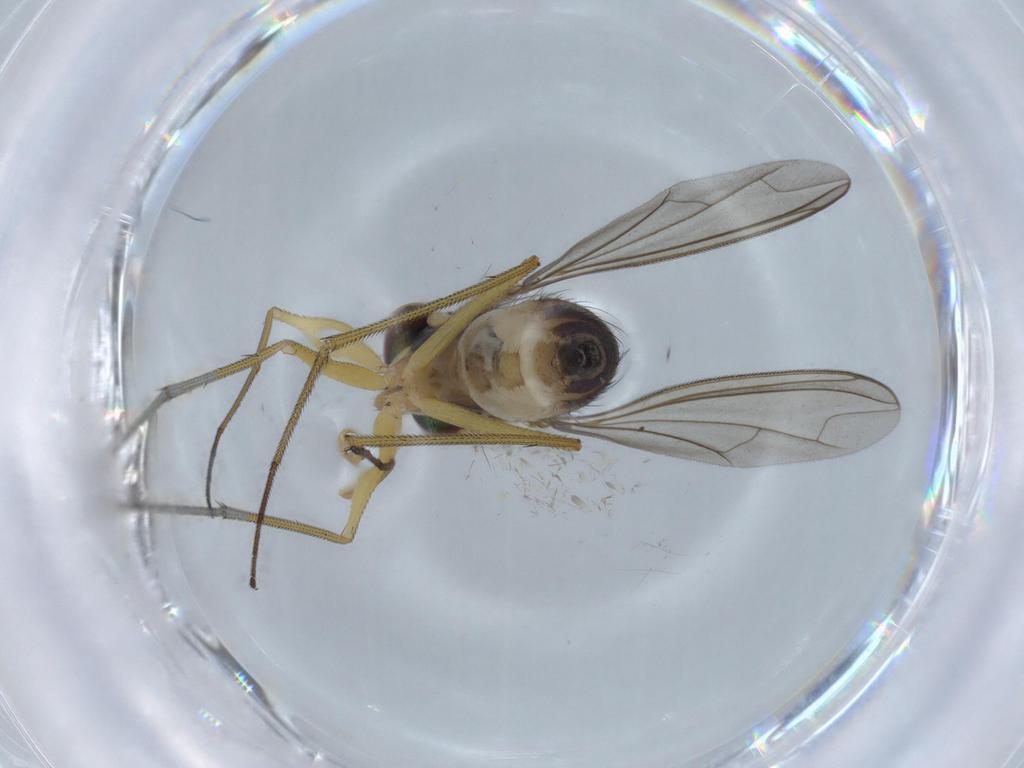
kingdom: Animalia
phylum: Arthropoda
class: Insecta
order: Diptera
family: Dolichopodidae
